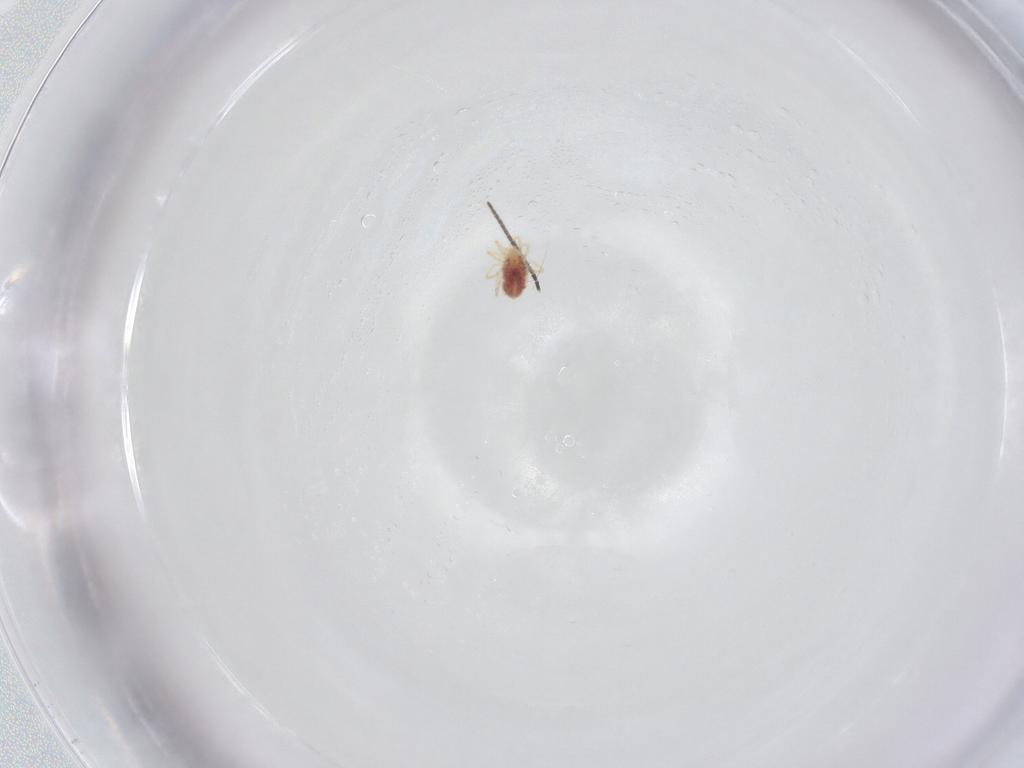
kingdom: Animalia
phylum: Arthropoda
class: Arachnida
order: Trombidiformes
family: Sphaerolichidae
